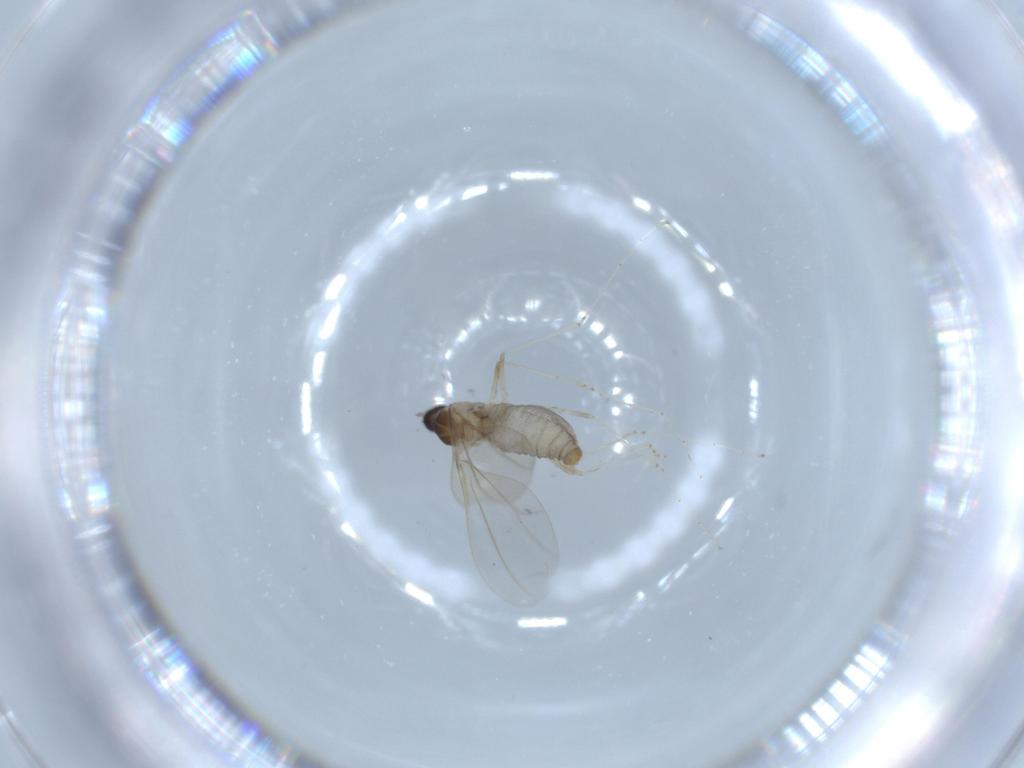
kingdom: Animalia
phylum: Arthropoda
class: Insecta
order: Diptera
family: Cecidomyiidae
